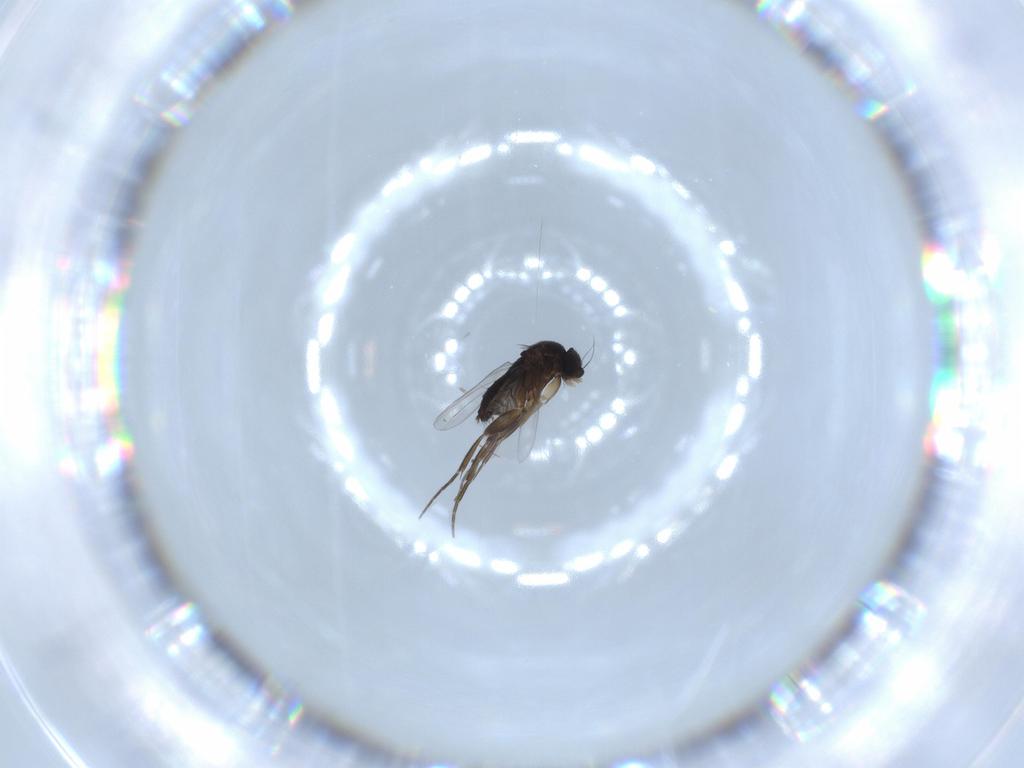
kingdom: Animalia
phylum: Arthropoda
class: Insecta
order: Diptera
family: Phoridae
